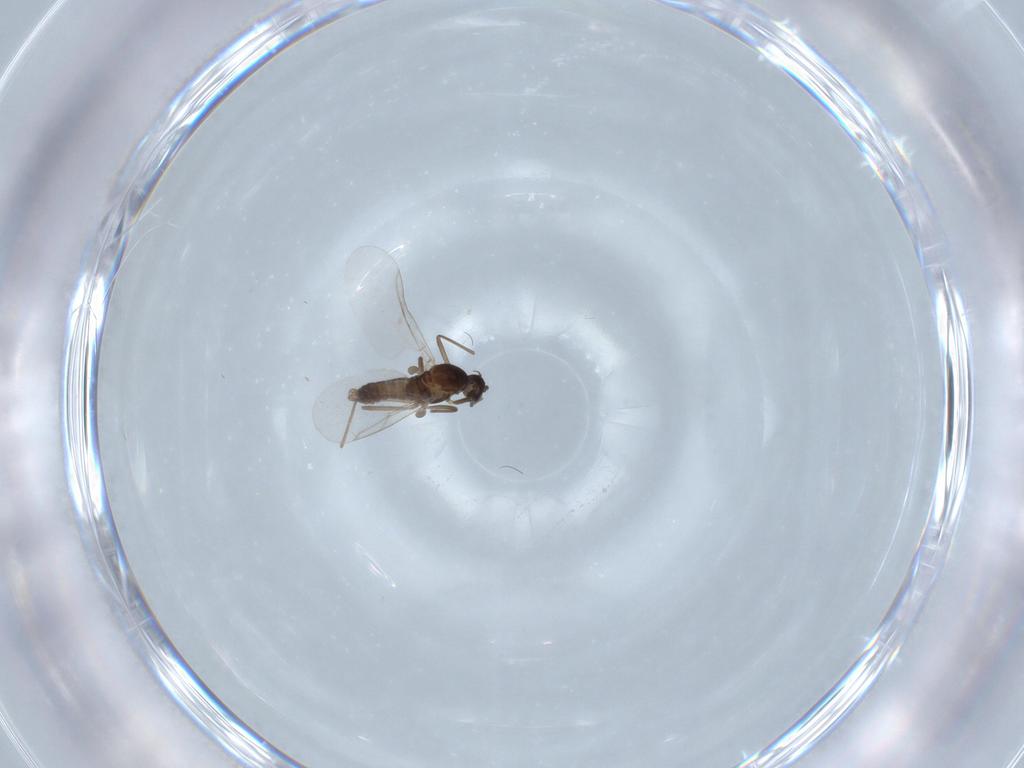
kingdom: Animalia
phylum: Arthropoda
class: Insecta
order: Diptera
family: Cecidomyiidae
